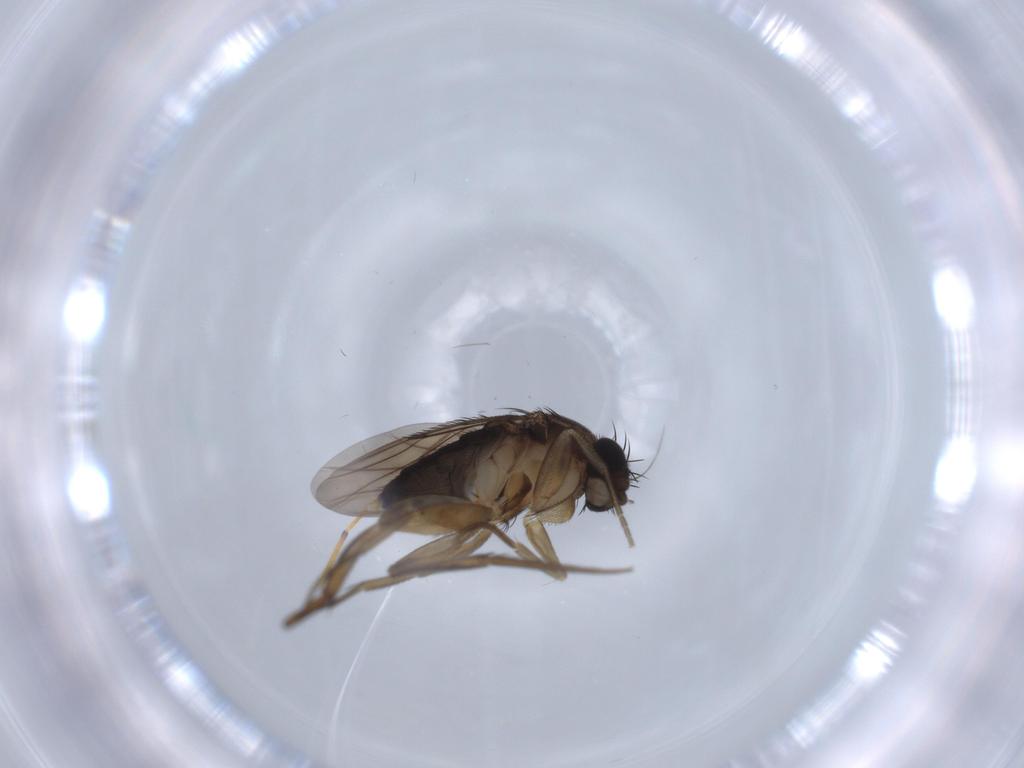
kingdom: Animalia
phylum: Arthropoda
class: Insecta
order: Diptera
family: Phoridae
